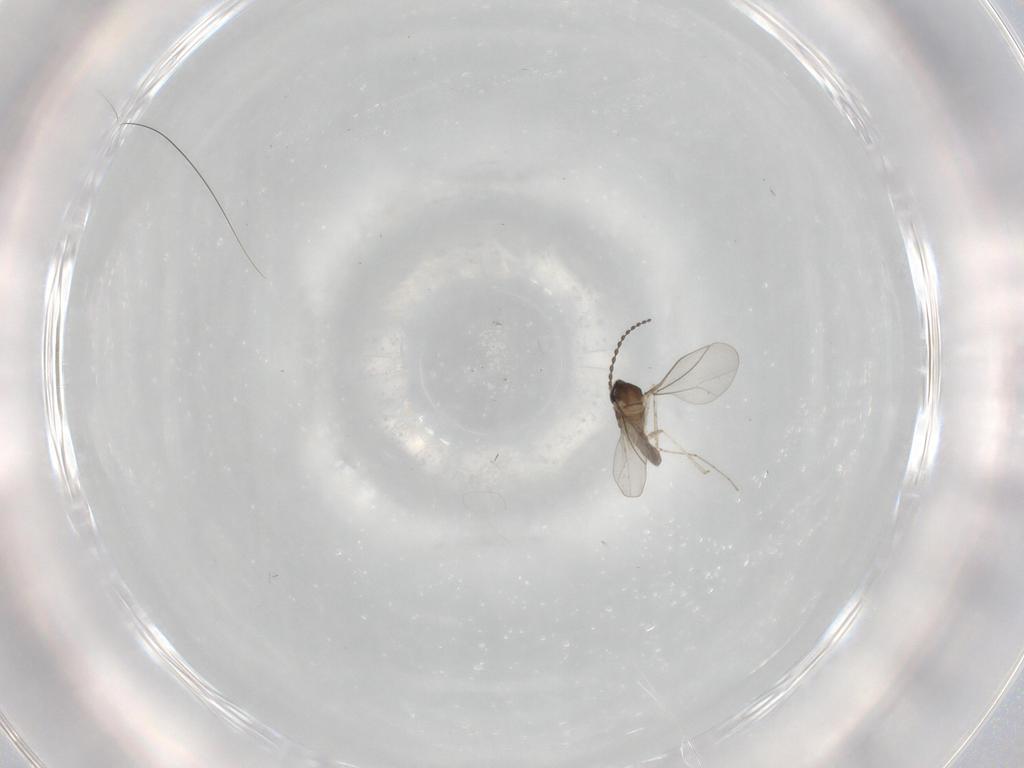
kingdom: Animalia
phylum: Arthropoda
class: Insecta
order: Diptera
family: Cecidomyiidae
